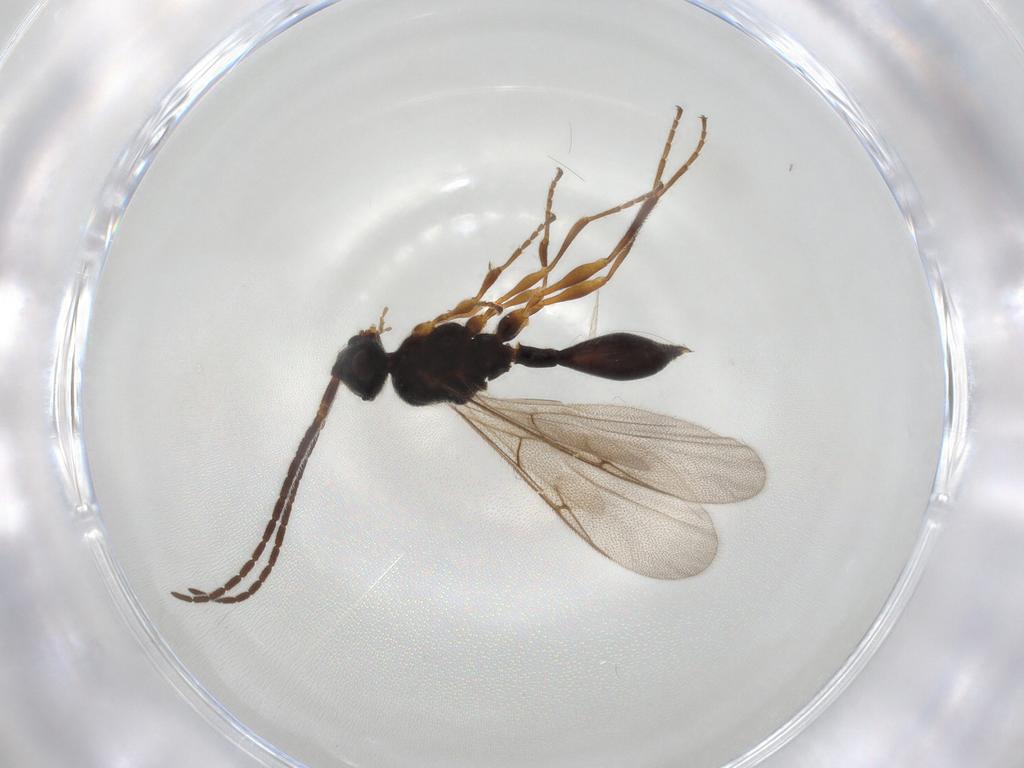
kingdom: Animalia
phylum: Arthropoda
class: Insecta
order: Hymenoptera
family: Diapriidae
